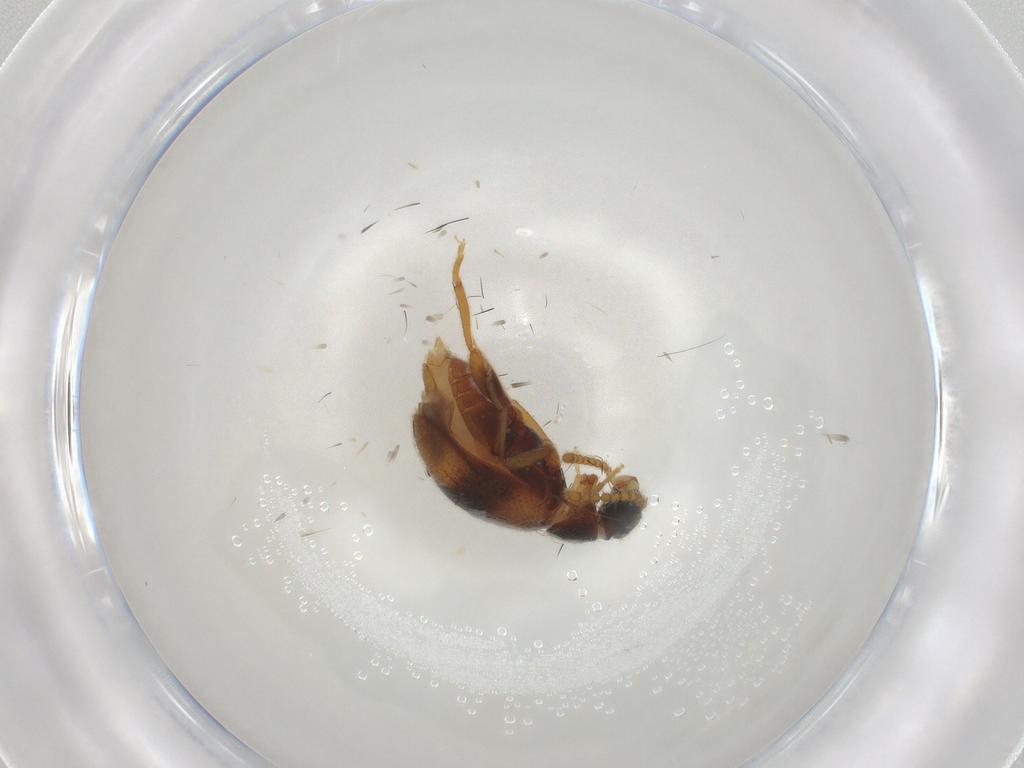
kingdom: Animalia
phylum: Arthropoda
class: Insecta
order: Coleoptera
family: Aderidae
